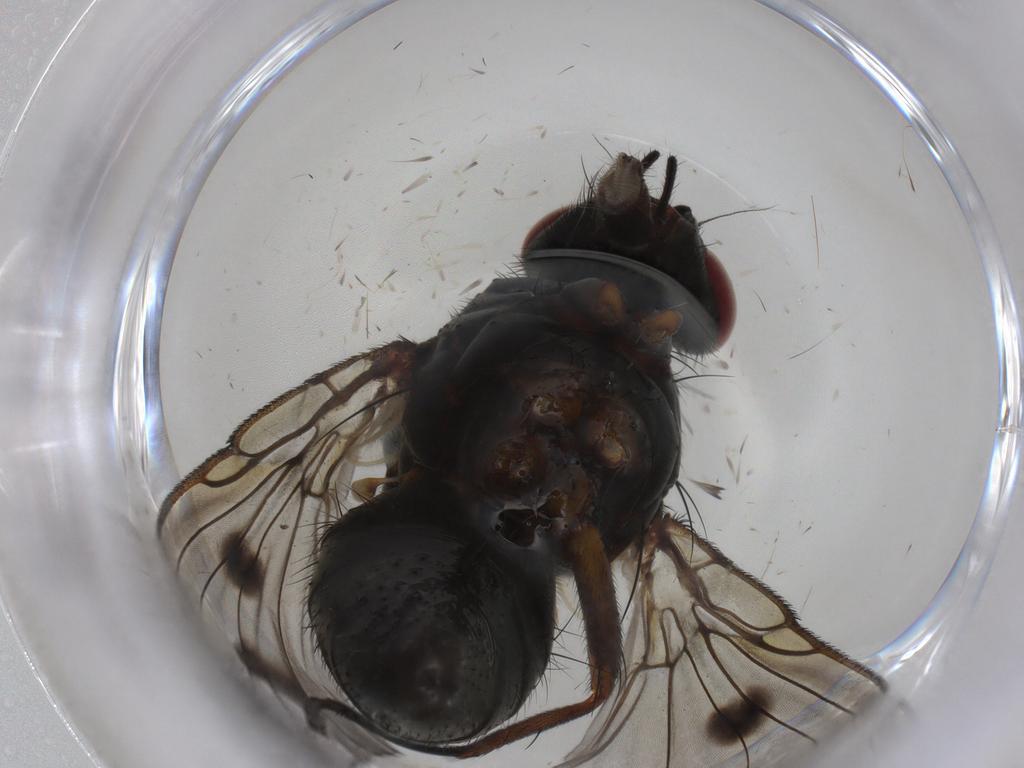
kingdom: Animalia
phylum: Arthropoda
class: Insecta
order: Diptera
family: Muscidae
